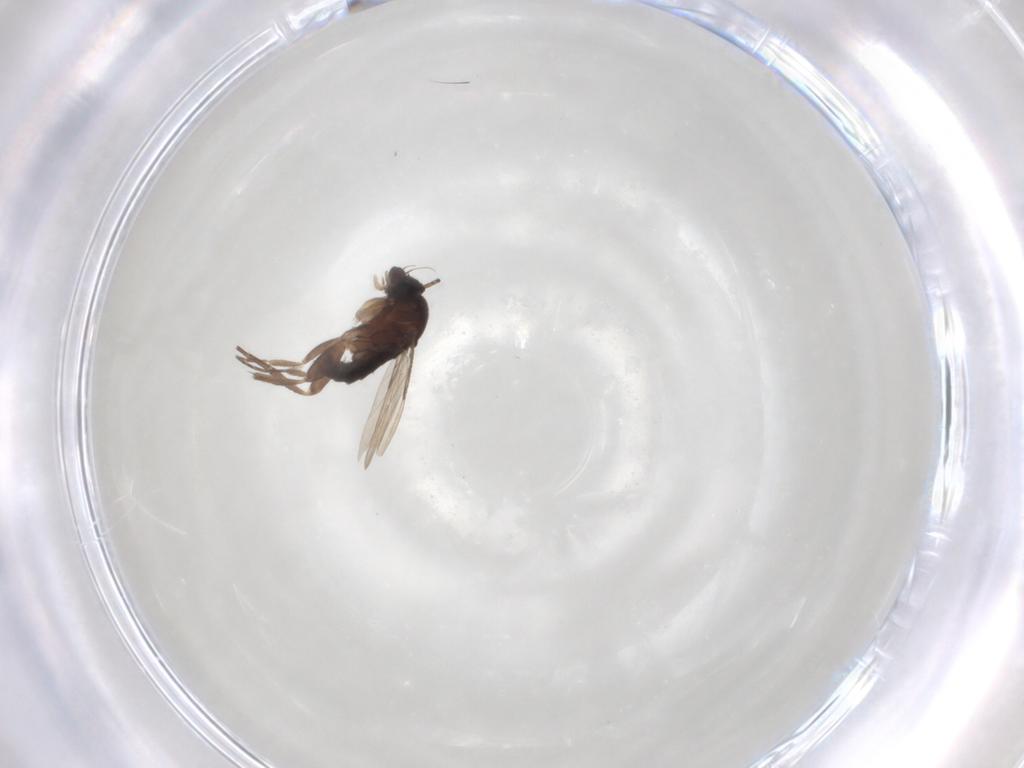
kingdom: Animalia
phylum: Arthropoda
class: Insecta
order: Diptera
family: Phoridae
